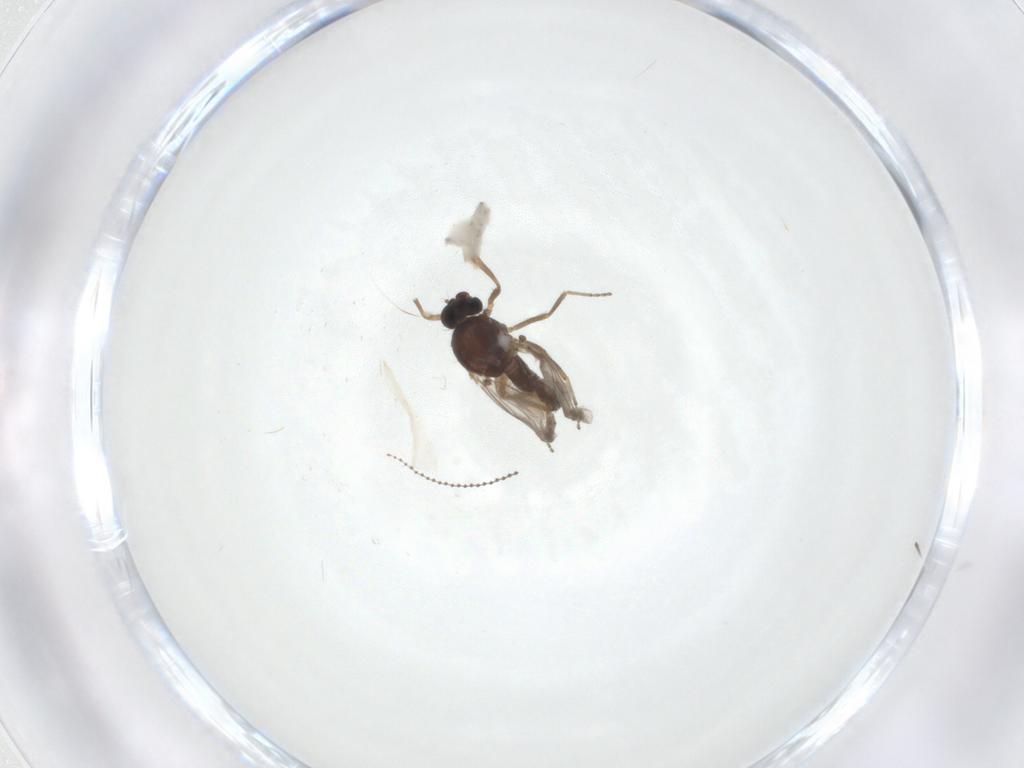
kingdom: Animalia
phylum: Arthropoda
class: Insecta
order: Diptera
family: Ceratopogonidae
